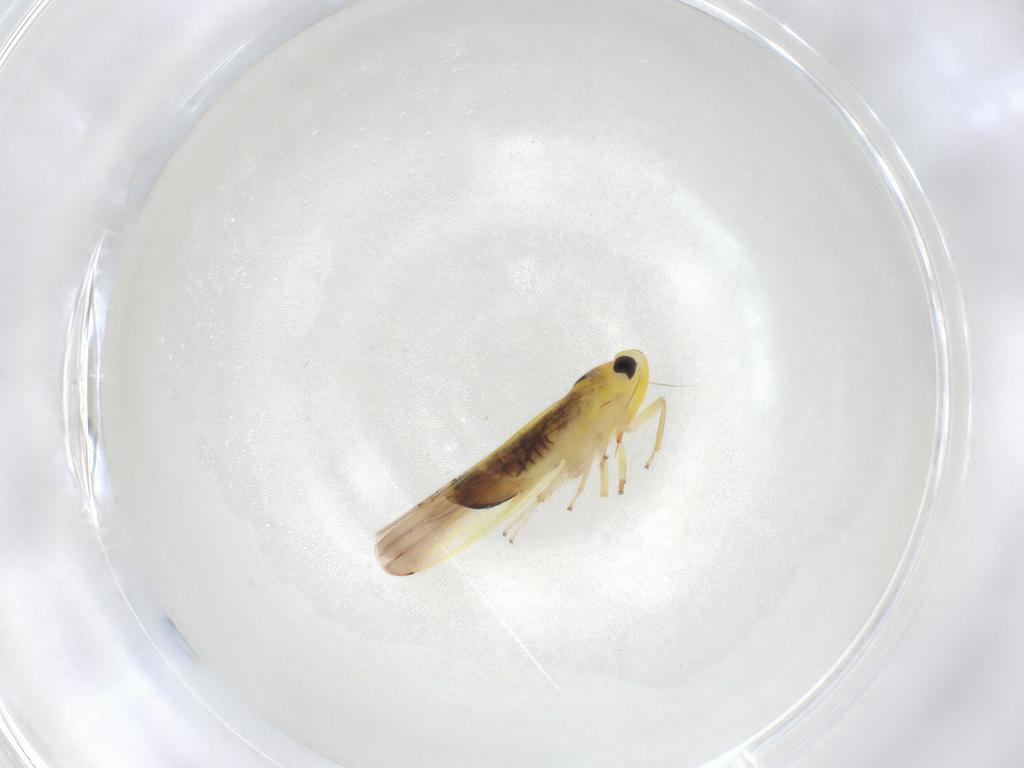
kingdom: Animalia
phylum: Arthropoda
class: Insecta
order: Hemiptera
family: Cicadellidae
